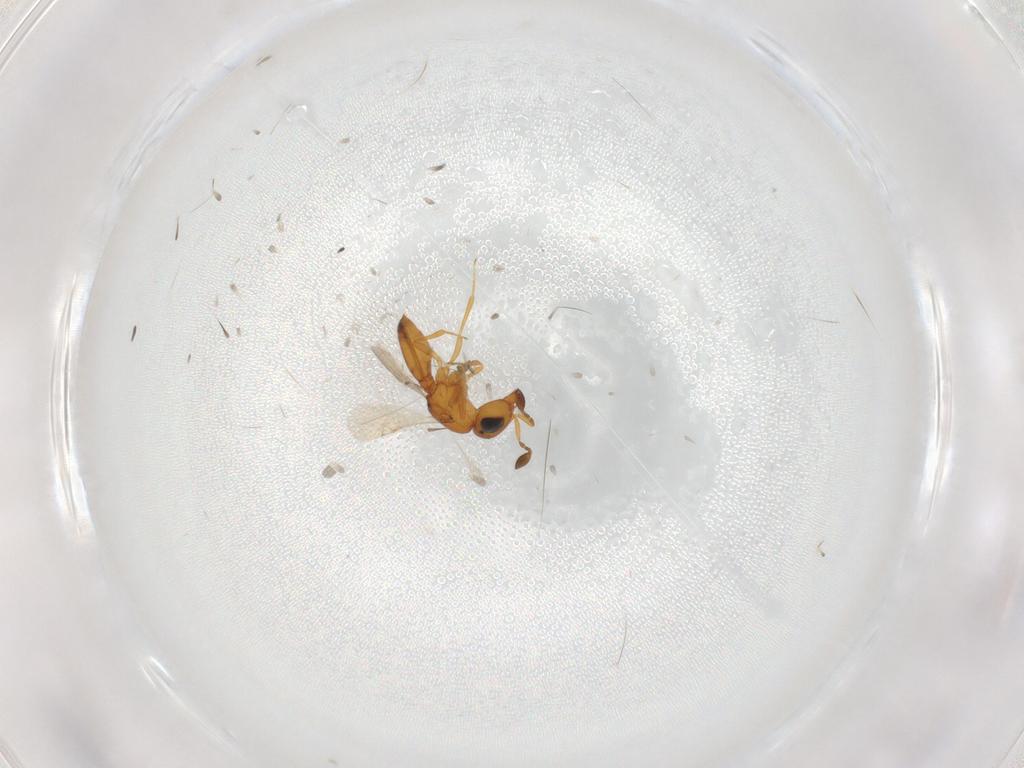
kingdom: Animalia
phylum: Arthropoda
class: Insecta
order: Hymenoptera
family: Scelionidae
